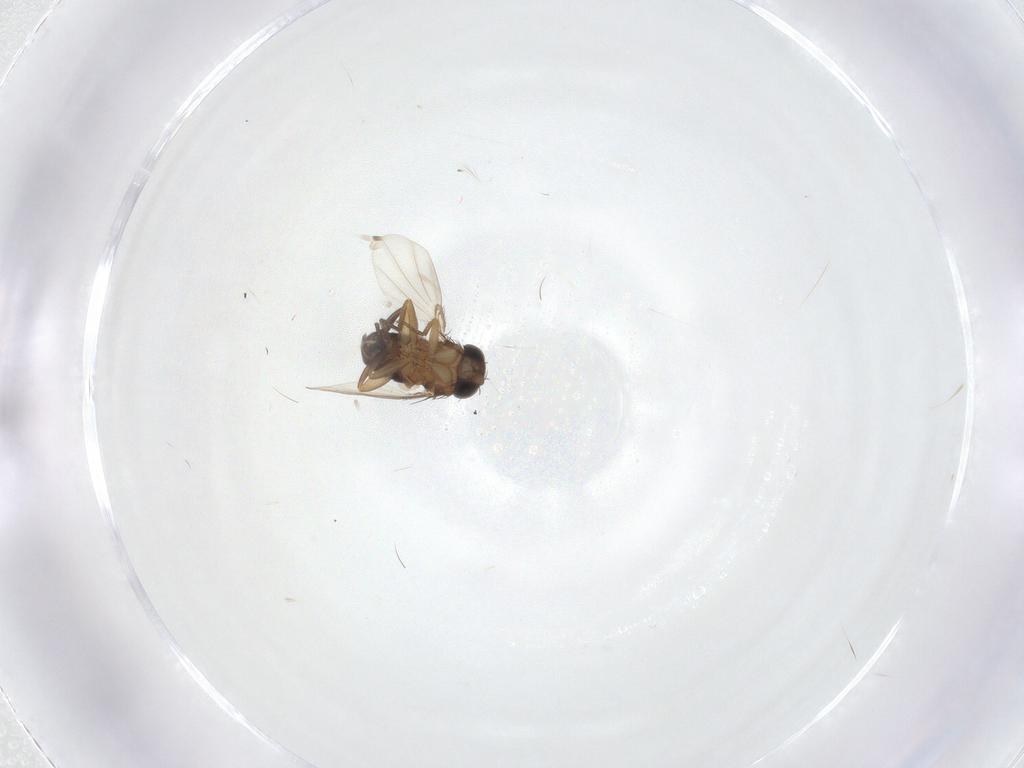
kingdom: Animalia
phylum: Arthropoda
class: Insecta
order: Diptera
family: Phoridae
